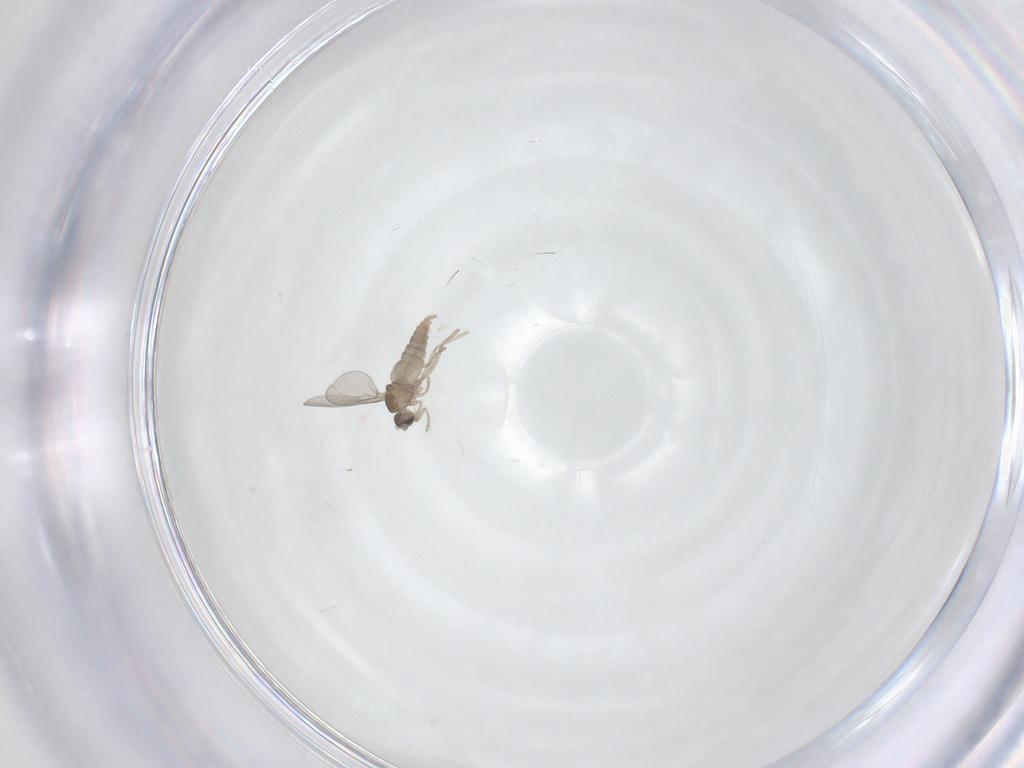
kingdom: Animalia
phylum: Arthropoda
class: Insecta
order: Diptera
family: Cecidomyiidae
